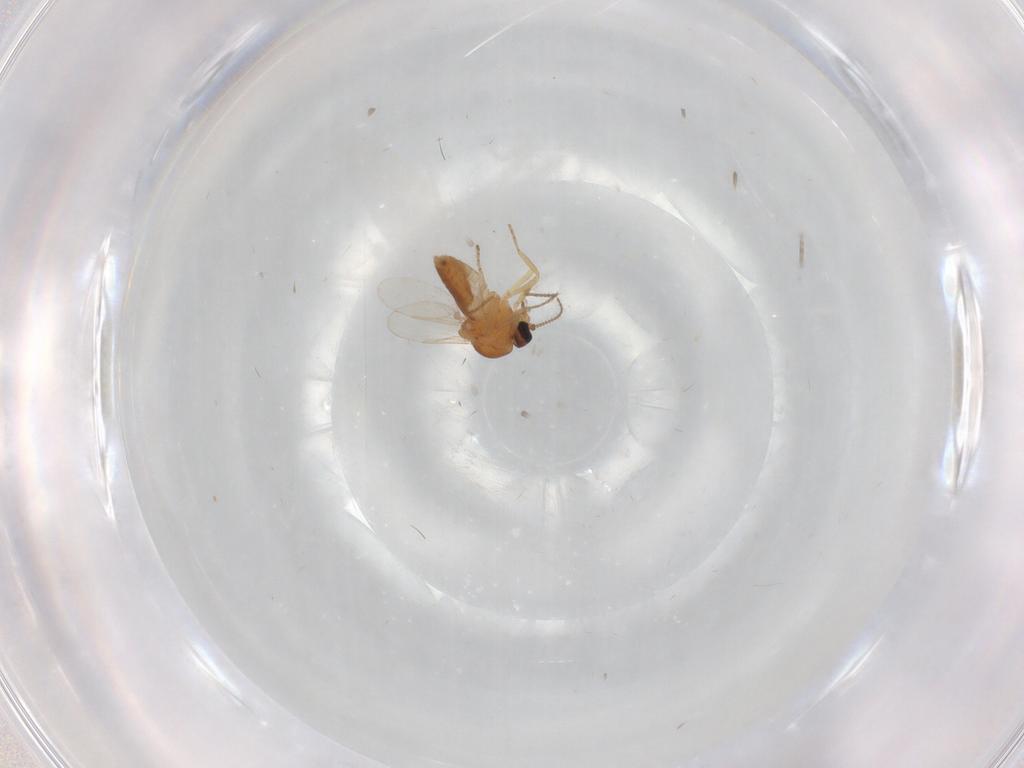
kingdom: Animalia
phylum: Arthropoda
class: Insecta
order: Diptera
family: Ceratopogonidae
